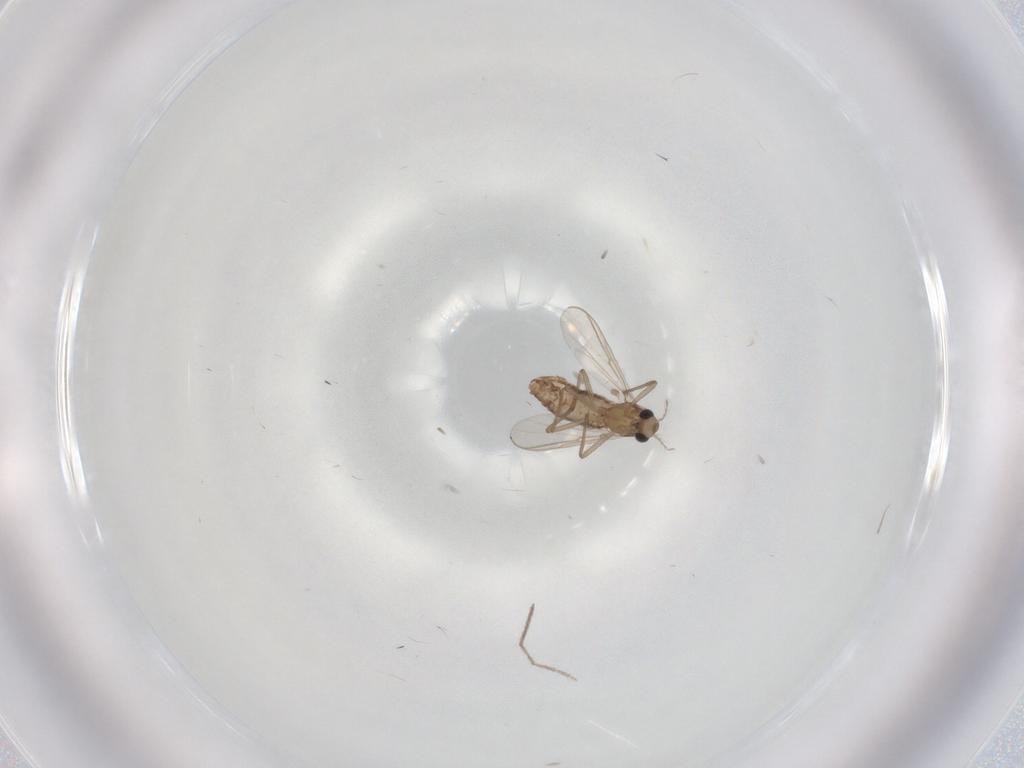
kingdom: Animalia
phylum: Arthropoda
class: Insecta
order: Diptera
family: Chironomidae
